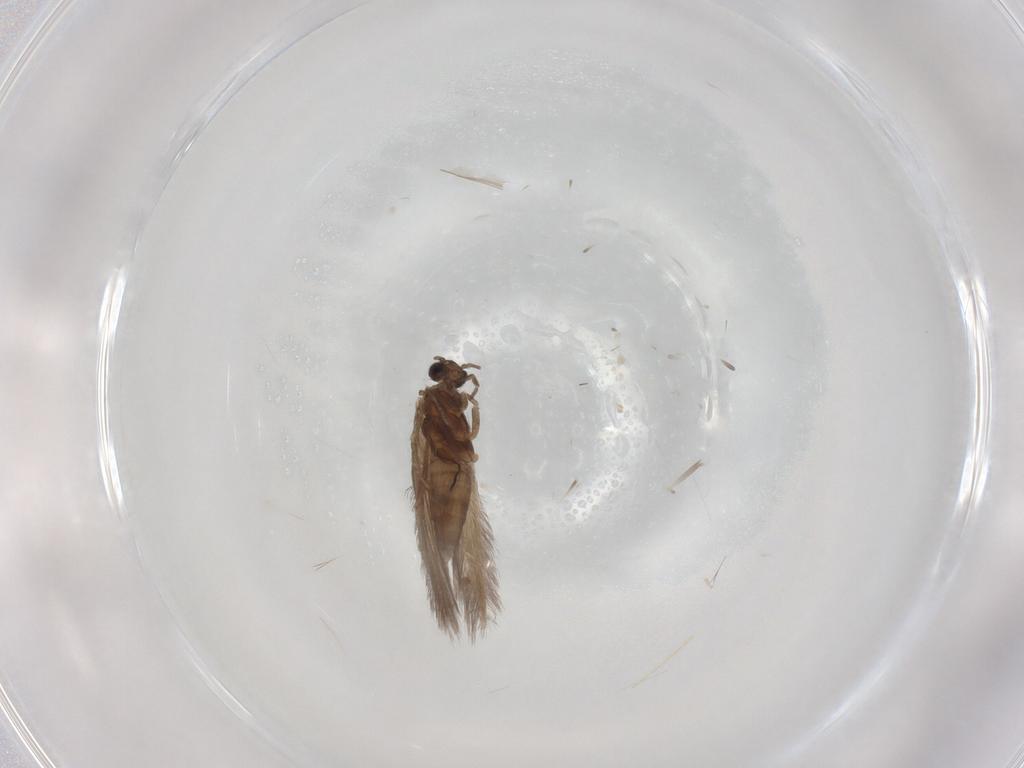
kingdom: Animalia
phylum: Arthropoda
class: Insecta
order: Trichoptera
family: Hydroptilidae
